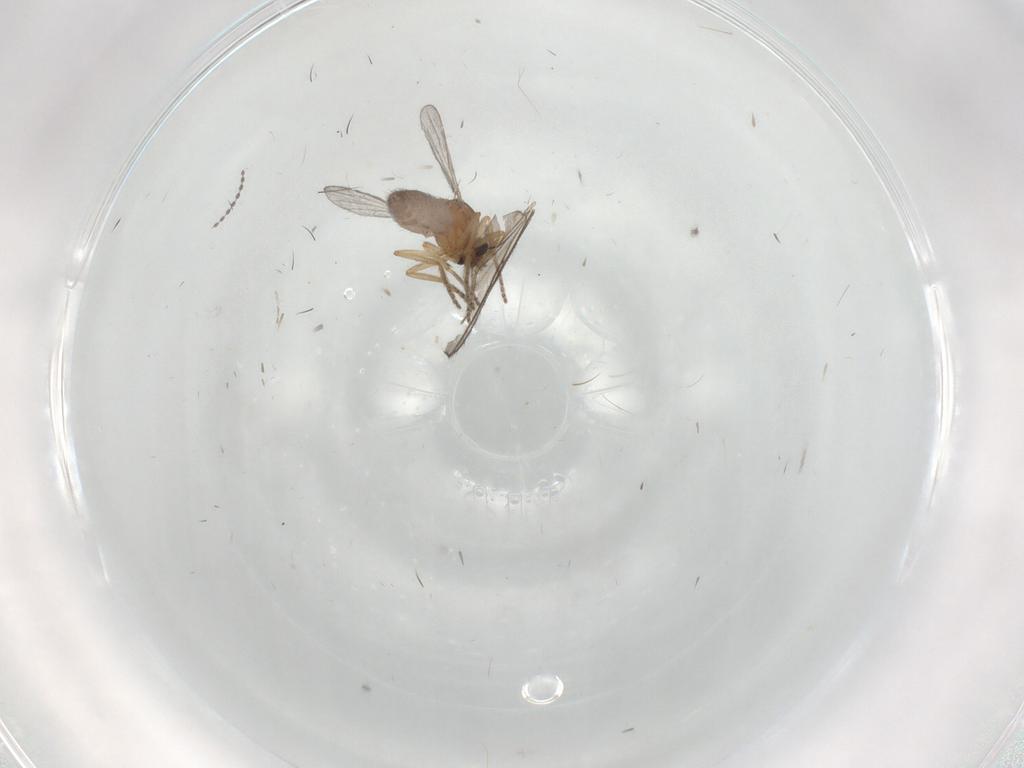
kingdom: Animalia
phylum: Arthropoda
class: Insecta
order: Diptera
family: Ceratopogonidae
